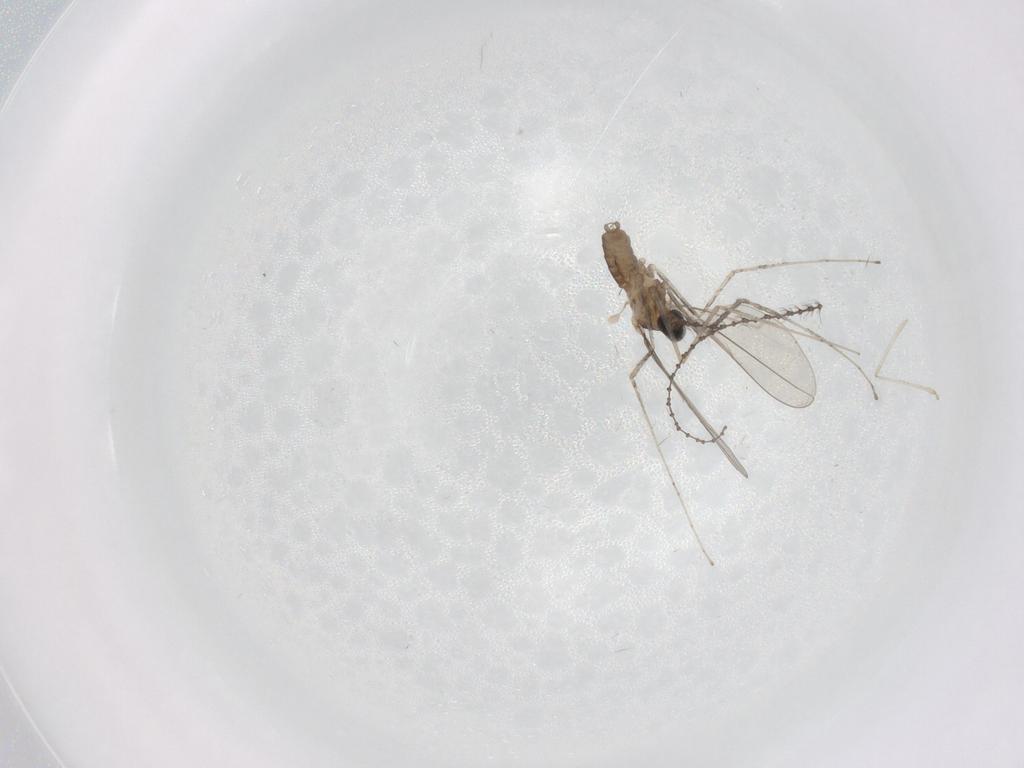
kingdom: Animalia
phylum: Arthropoda
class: Insecta
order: Diptera
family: Cecidomyiidae
